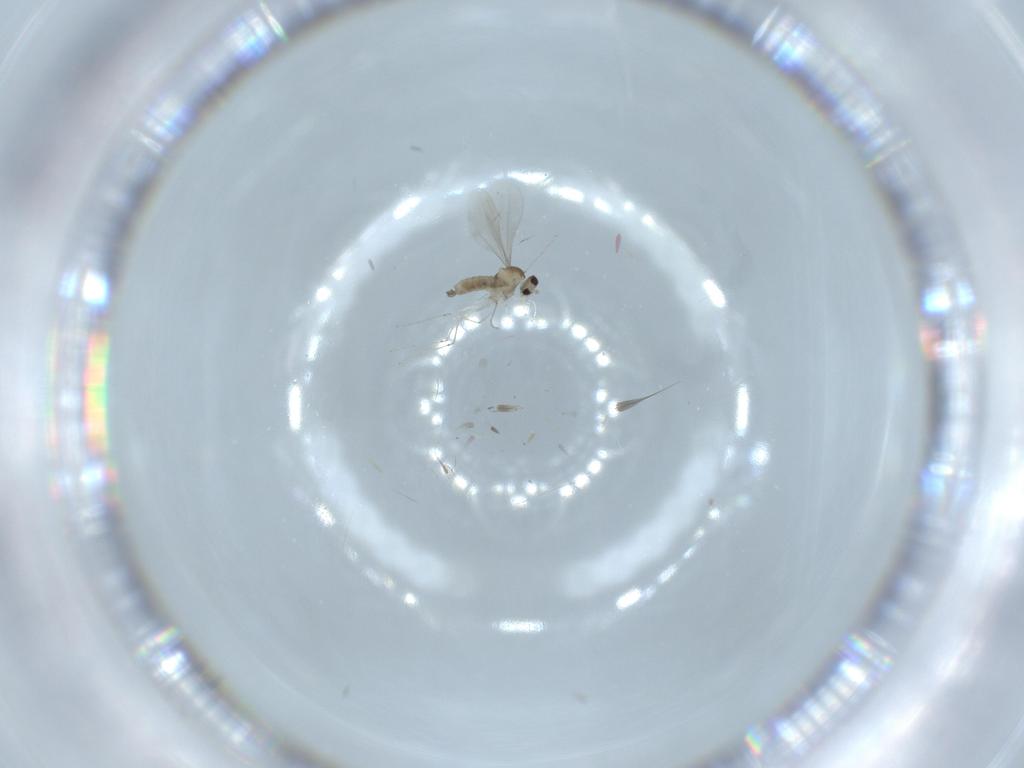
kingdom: Animalia
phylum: Arthropoda
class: Insecta
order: Diptera
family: Cecidomyiidae
